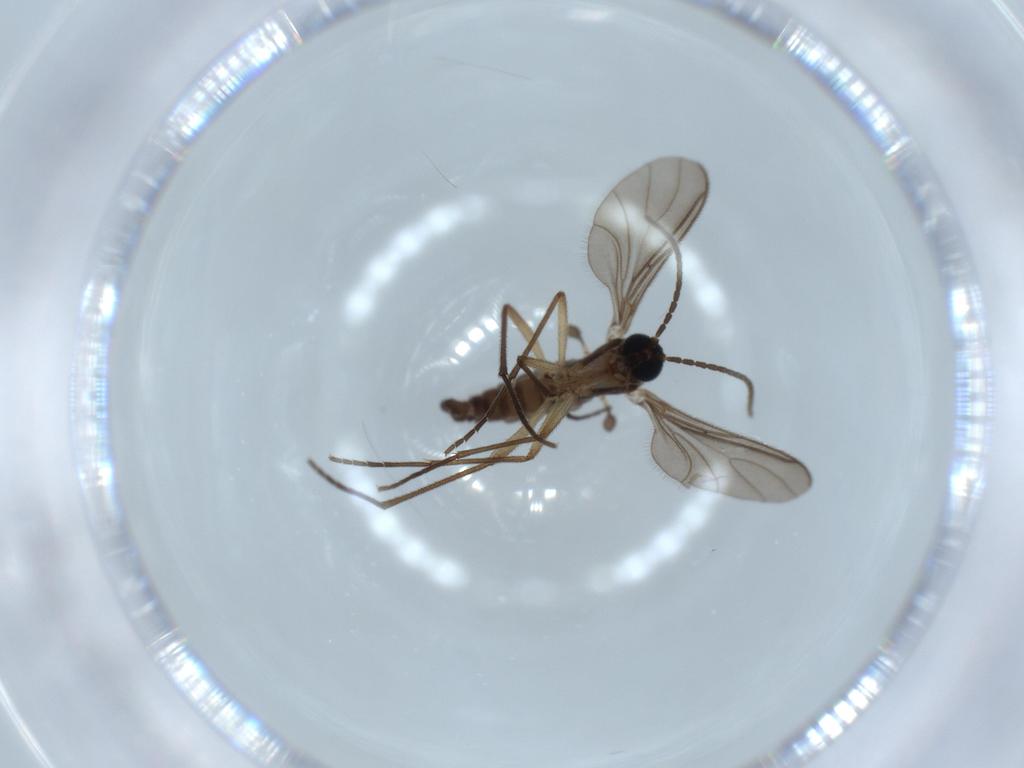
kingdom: Animalia
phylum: Arthropoda
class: Insecta
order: Diptera
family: Sciaridae
